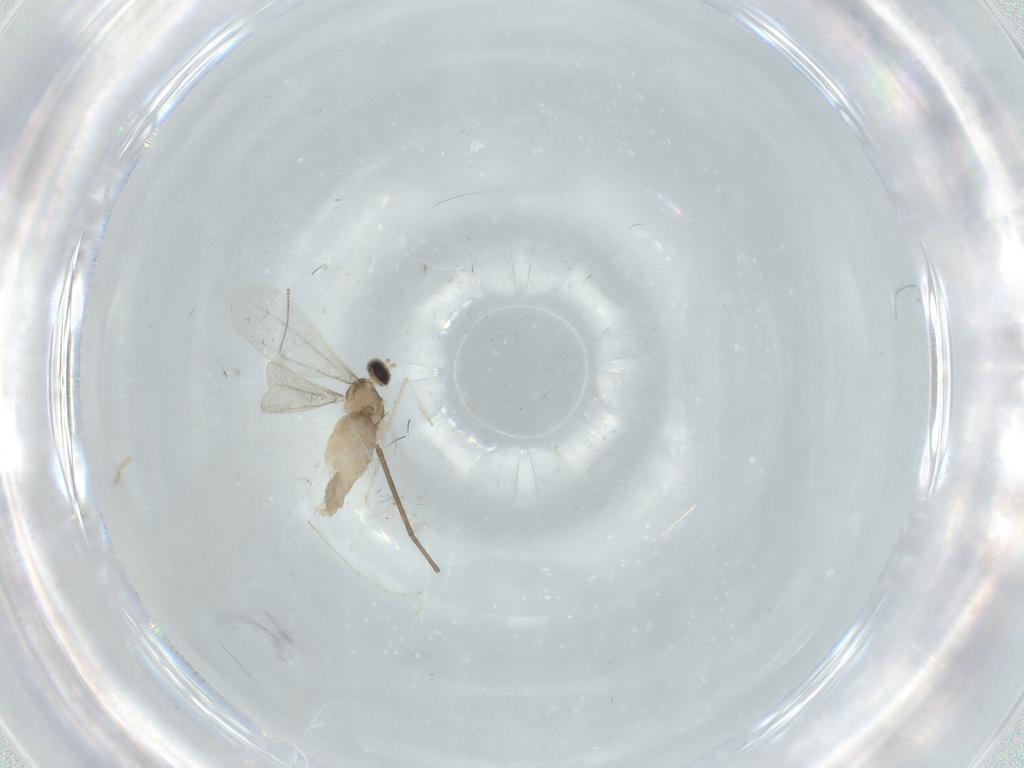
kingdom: Animalia
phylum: Arthropoda
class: Insecta
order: Diptera
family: Cecidomyiidae
